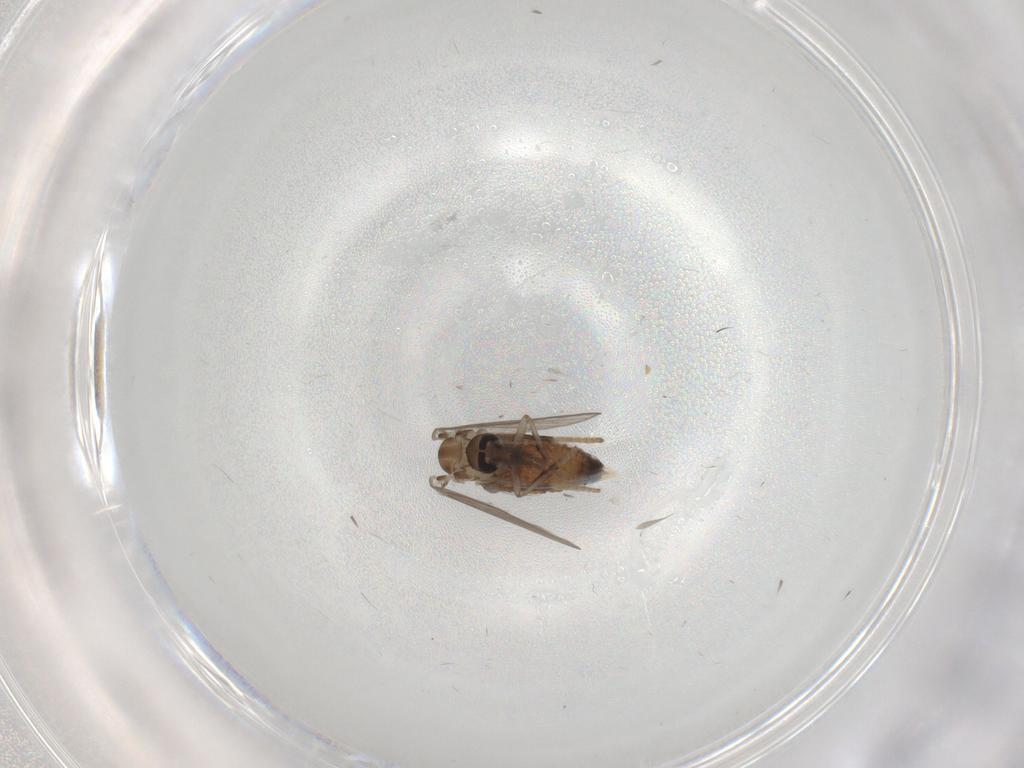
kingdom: Animalia
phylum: Arthropoda
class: Insecta
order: Diptera
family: Psychodidae
